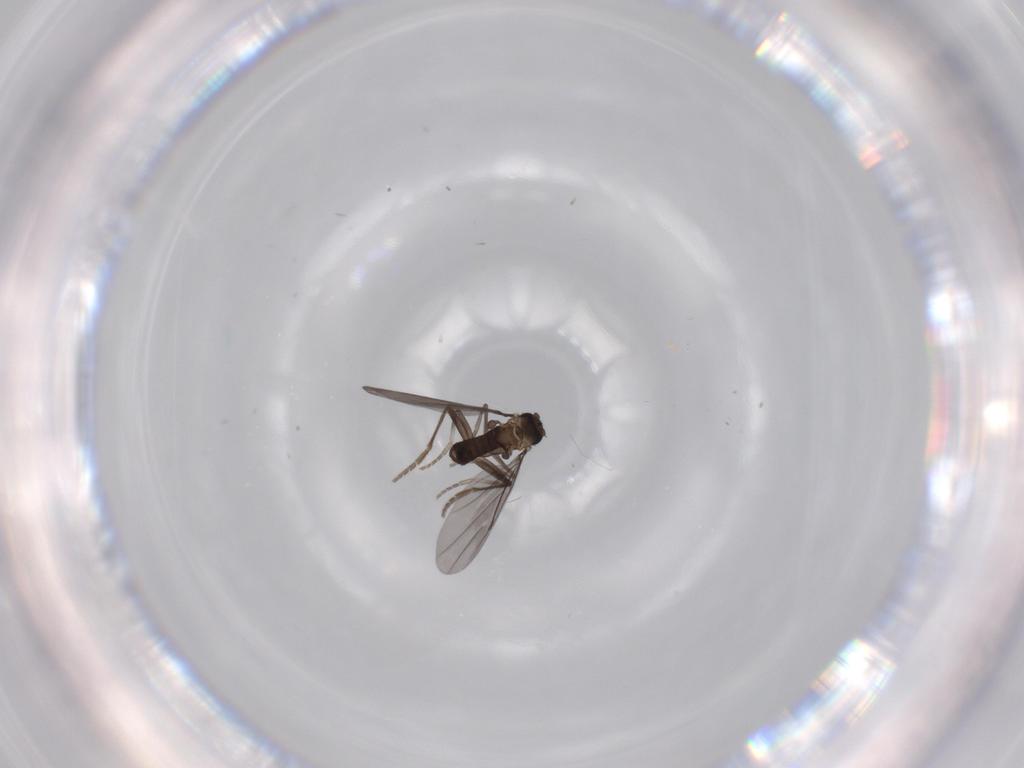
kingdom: Animalia
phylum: Arthropoda
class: Insecta
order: Diptera
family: Phoridae
